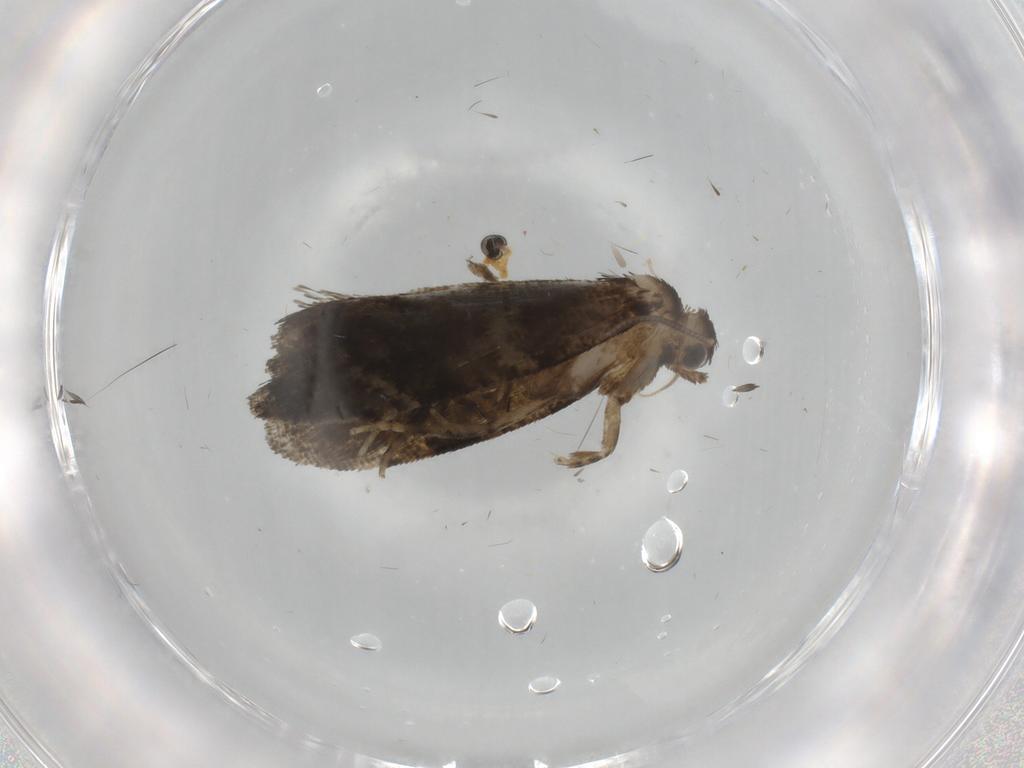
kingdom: Animalia
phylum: Arthropoda
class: Insecta
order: Lepidoptera
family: Tortricidae
